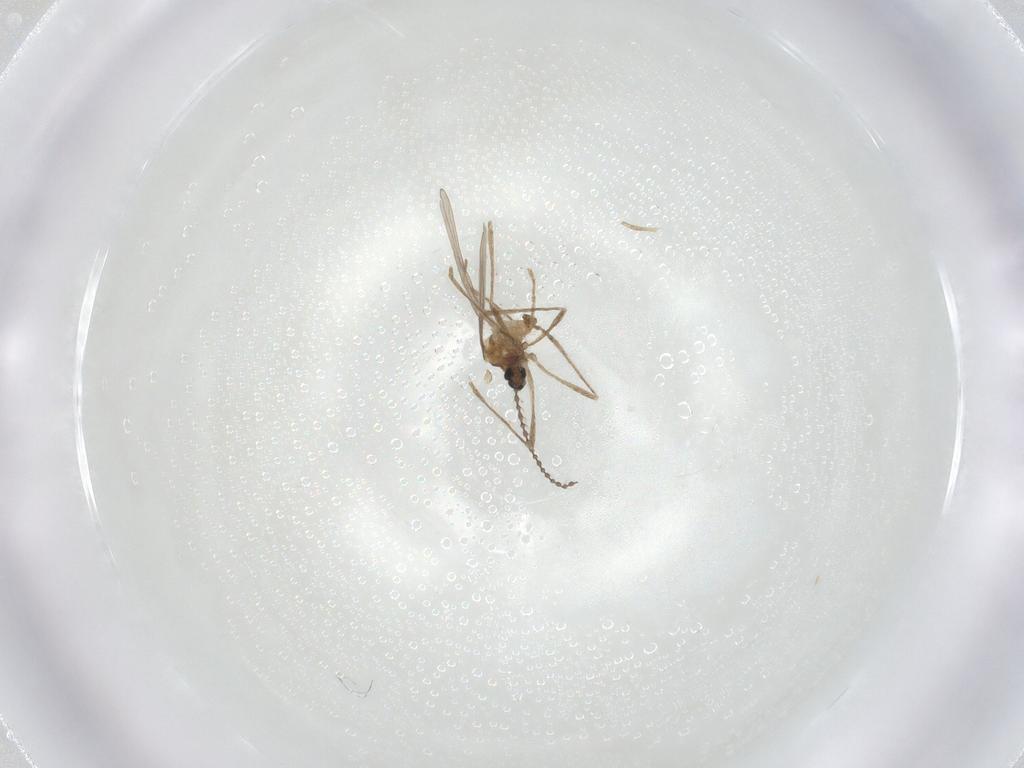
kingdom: Animalia
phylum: Arthropoda
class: Insecta
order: Diptera
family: Cecidomyiidae
